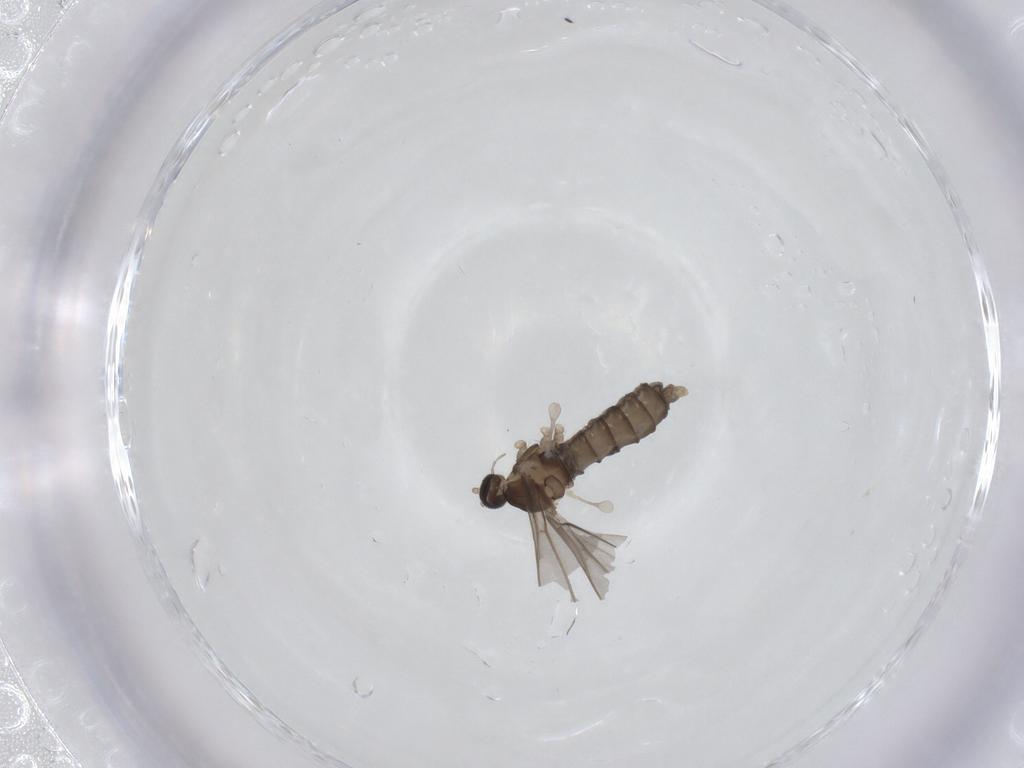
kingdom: Animalia
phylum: Arthropoda
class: Insecta
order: Diptera
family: Cecidomyiidae
